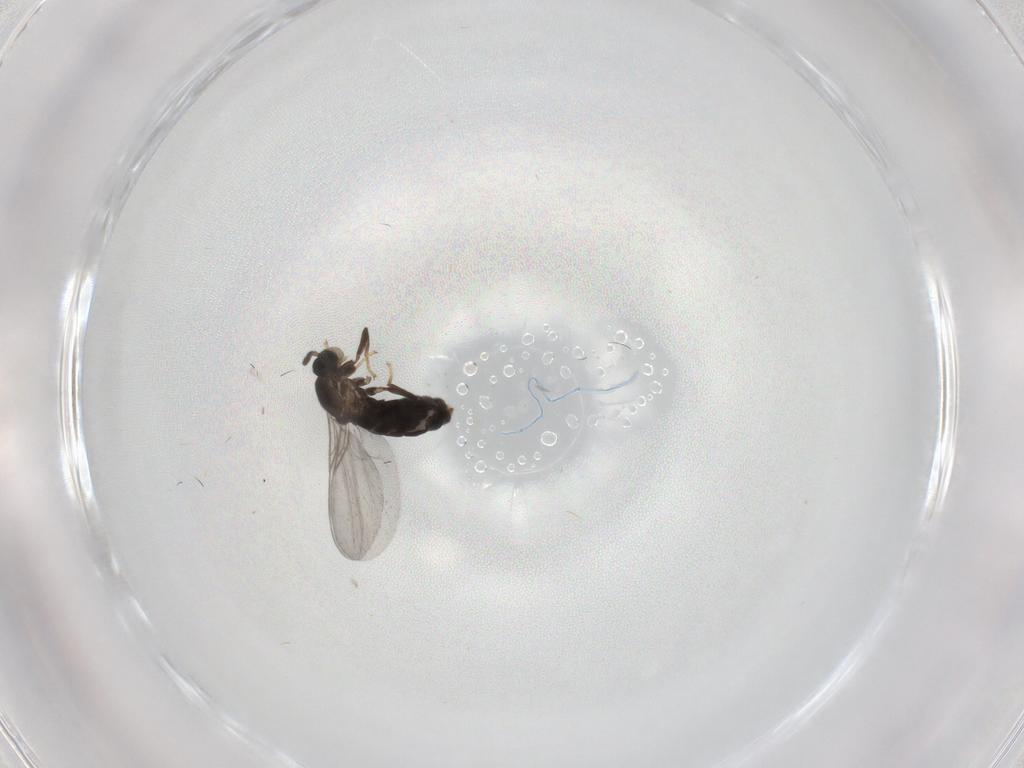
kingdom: Animalia
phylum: Arthropoda
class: Insecta
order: Diptera
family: Scatopsidae
